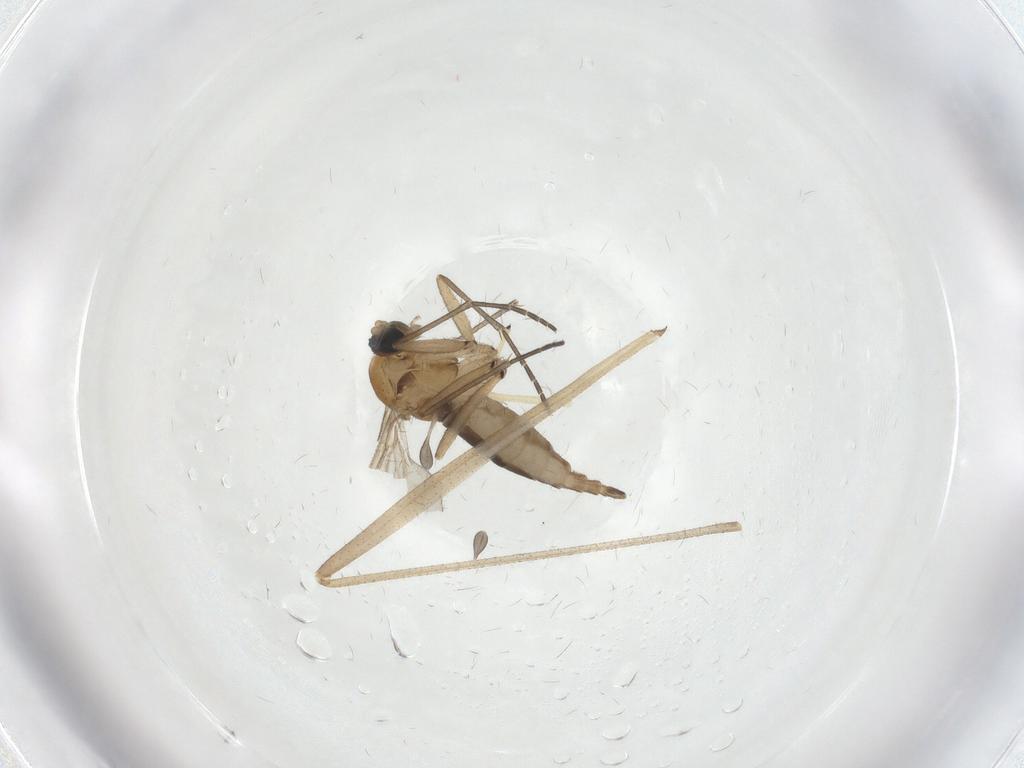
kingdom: Animalia
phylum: Arthropoda
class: Insecta
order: Diptera
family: Sciaridae
